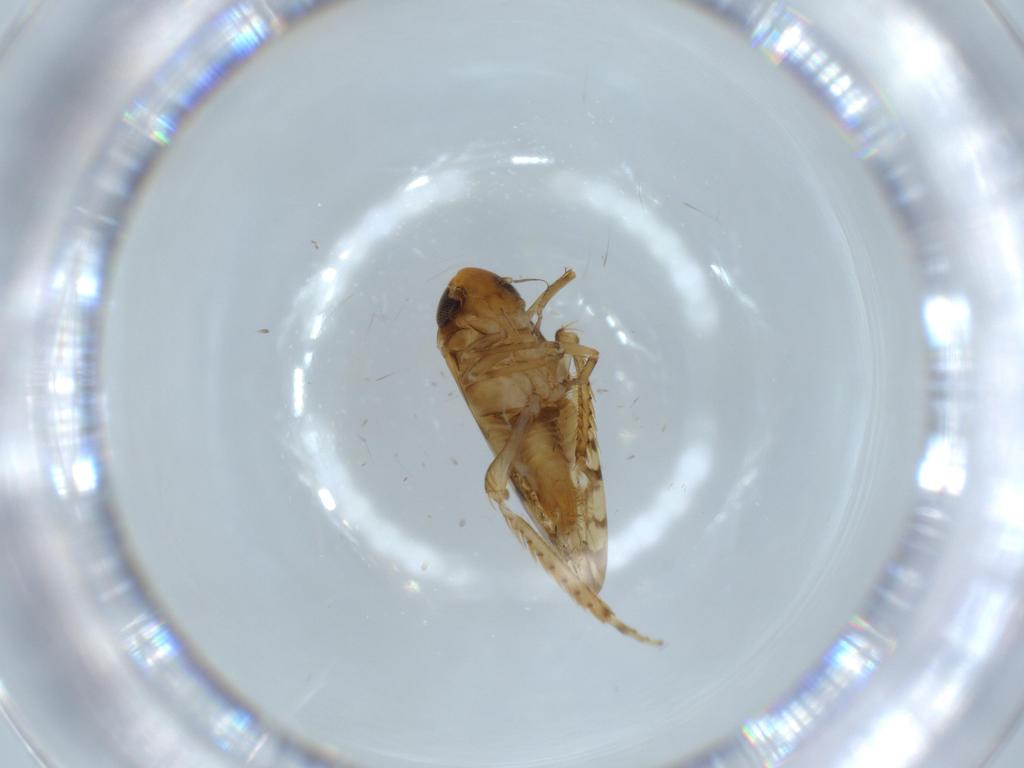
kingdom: Animalia
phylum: Arthropoda
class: Insecta
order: Hemiptera
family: Cicadellidae
